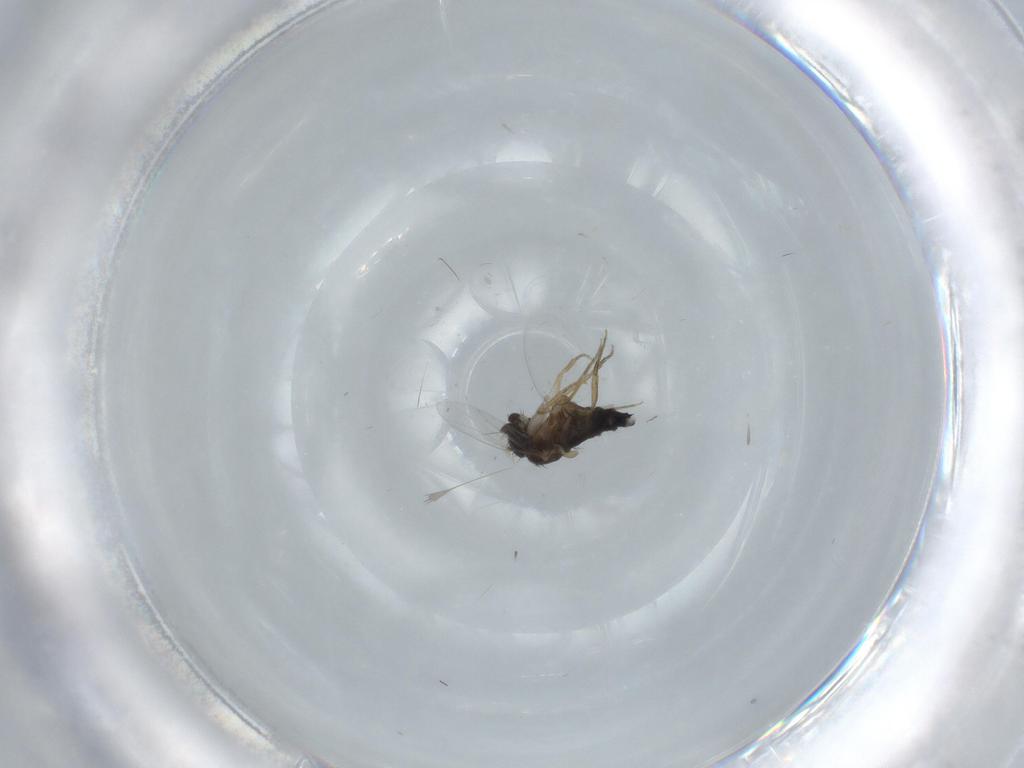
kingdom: Animalia
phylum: Arthropoda
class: Insecta
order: Diptera
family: Phoridae
